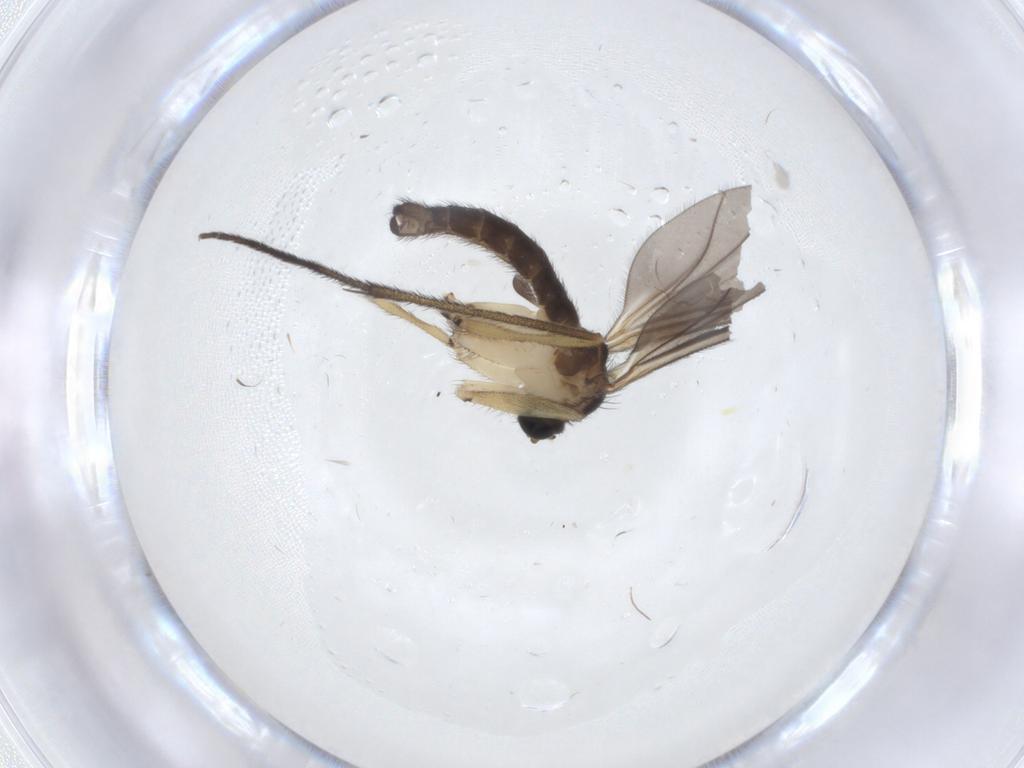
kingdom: Animalia
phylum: Arthropoda
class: Insecta
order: Diptera
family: Sciaridae
